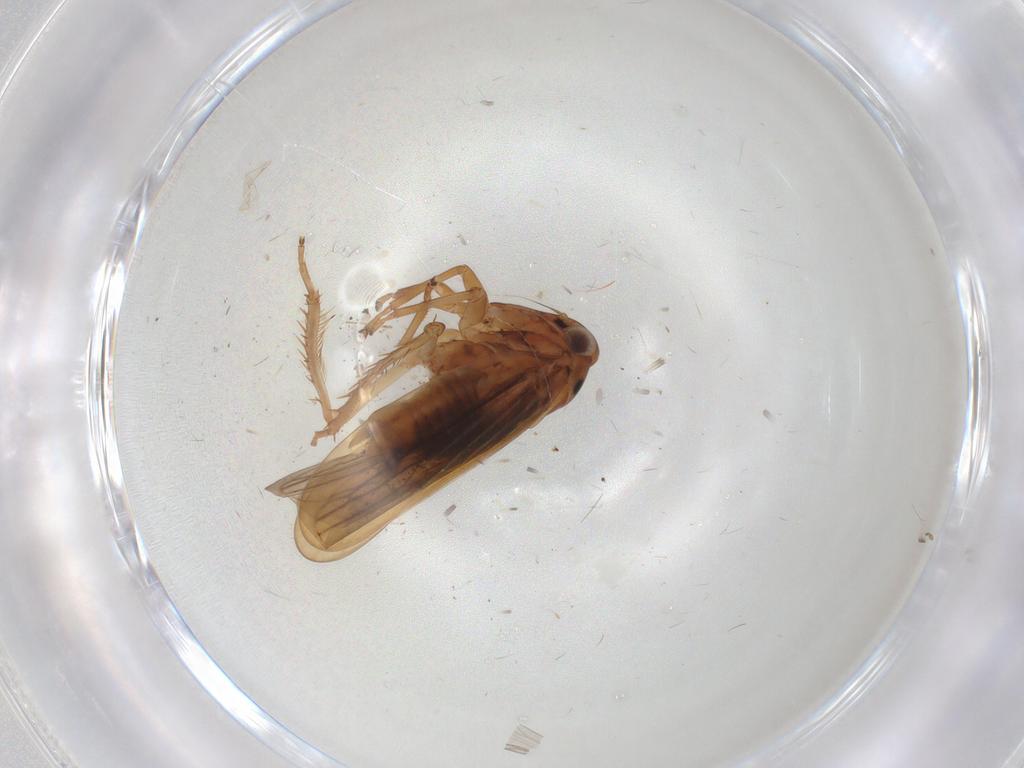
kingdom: Animalia
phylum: Arthropoda
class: Insecta
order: Hemiptera
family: Cicadellidae
